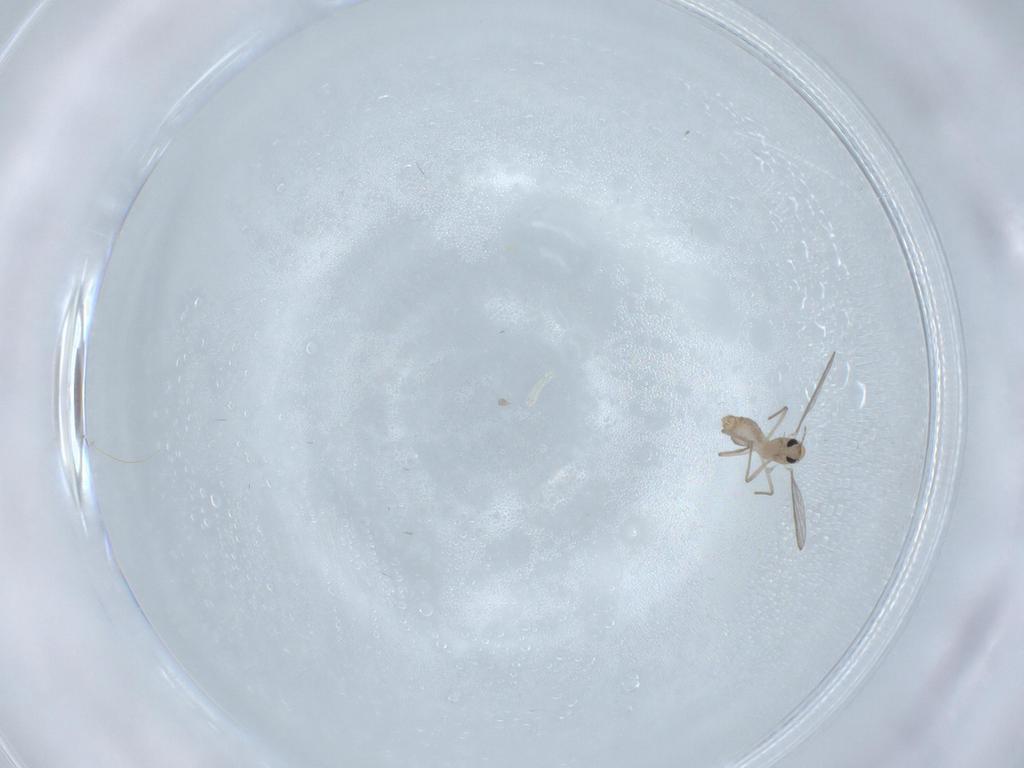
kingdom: Animalia
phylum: Arthropoda
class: Insecta
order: Diptera
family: Chironomidae
